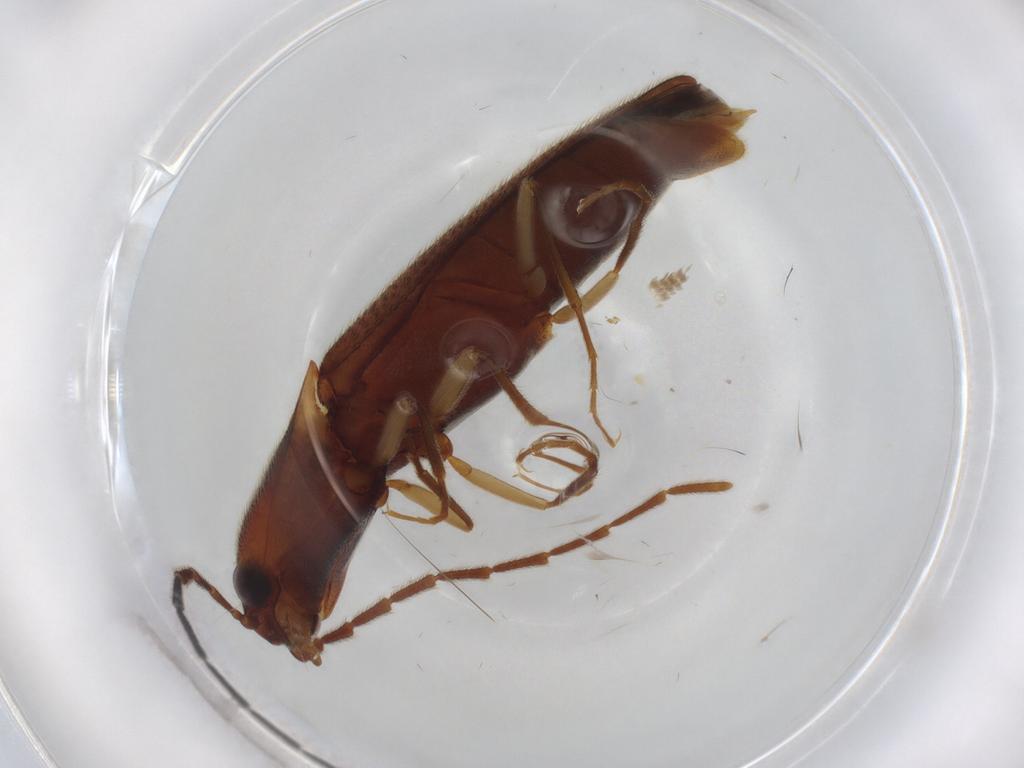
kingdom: Animalia
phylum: Arthropoda
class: Insecta
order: Coleoptera
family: Elateridae
